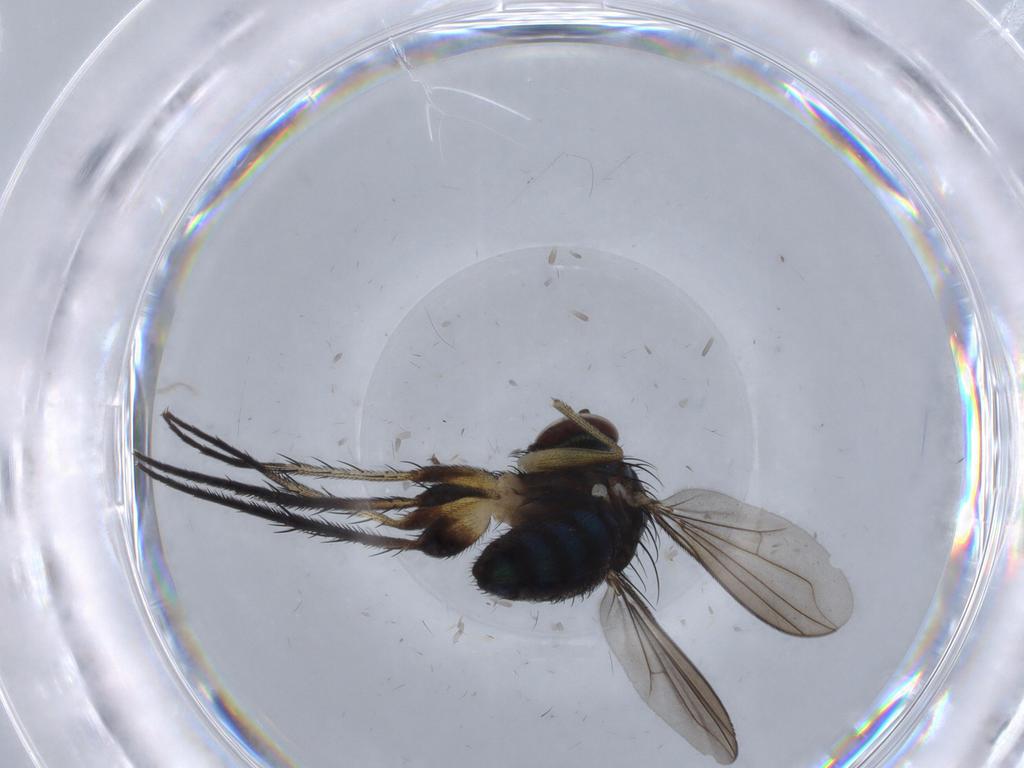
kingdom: Animalia
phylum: Arthropoda
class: Insecta
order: Diptera
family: Dolichopodidae
